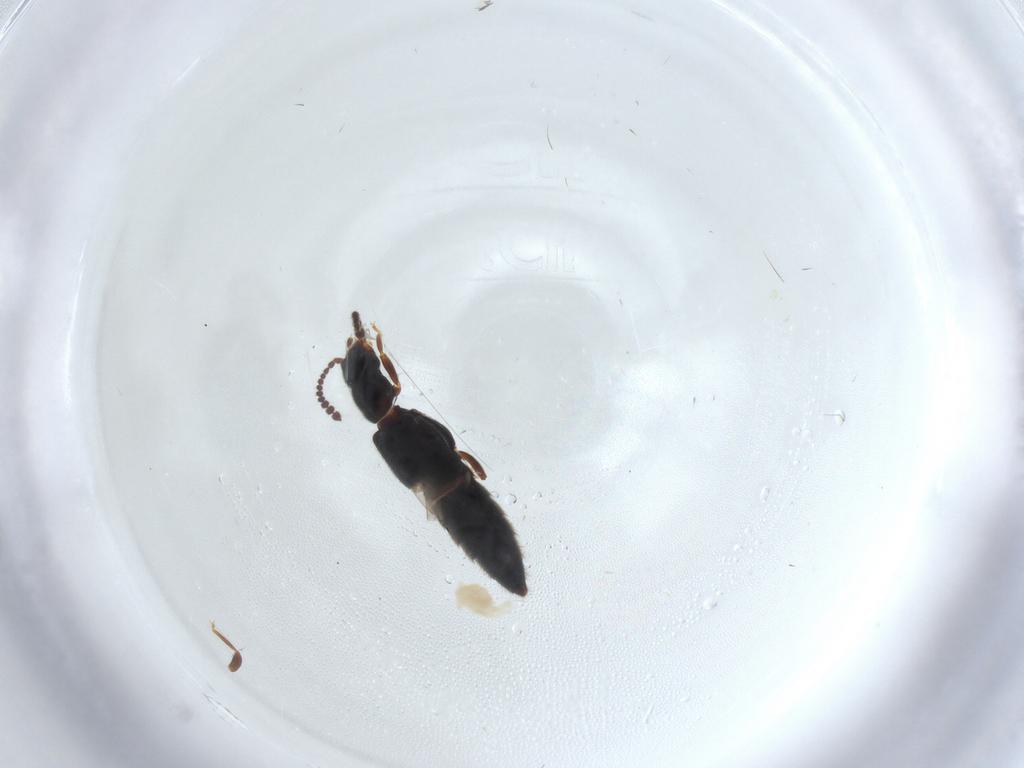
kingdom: Animalia
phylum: Arthropoda
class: Insecta
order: Coleoptera
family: Staphylinidae
